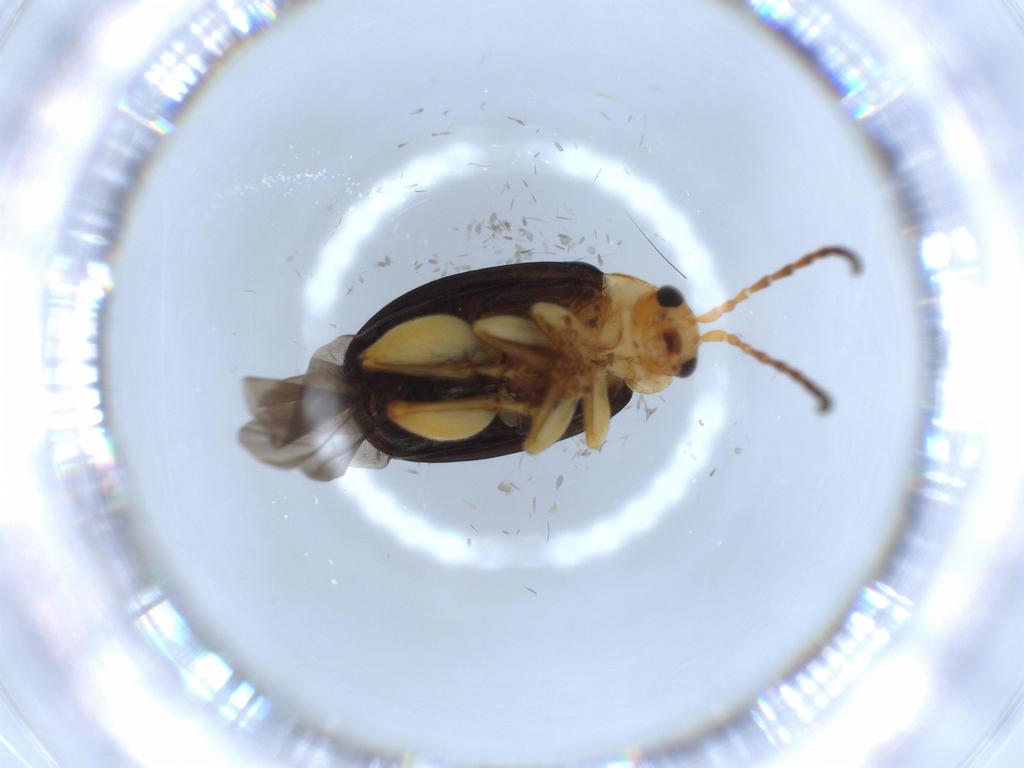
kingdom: Animalia
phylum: Arthropoda
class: Insecta
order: Coleoptera
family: Chrysomelidae
